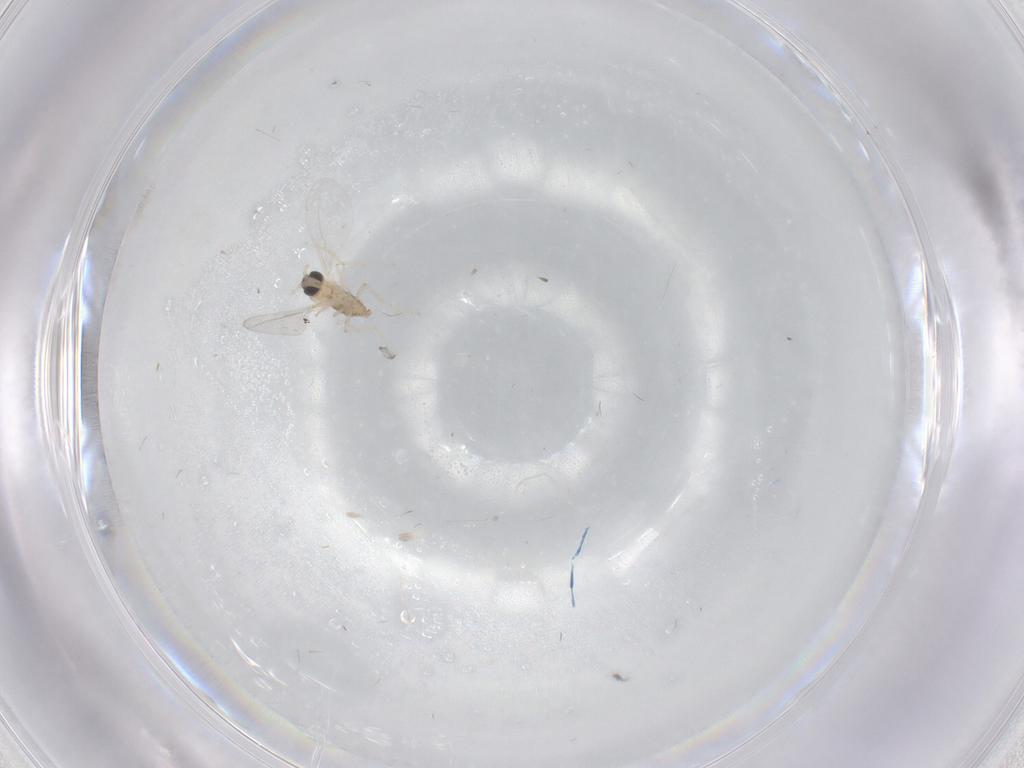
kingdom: Animalia
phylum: Arthropoda
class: Insecta
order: Diptera
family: Cecidomyiidae
